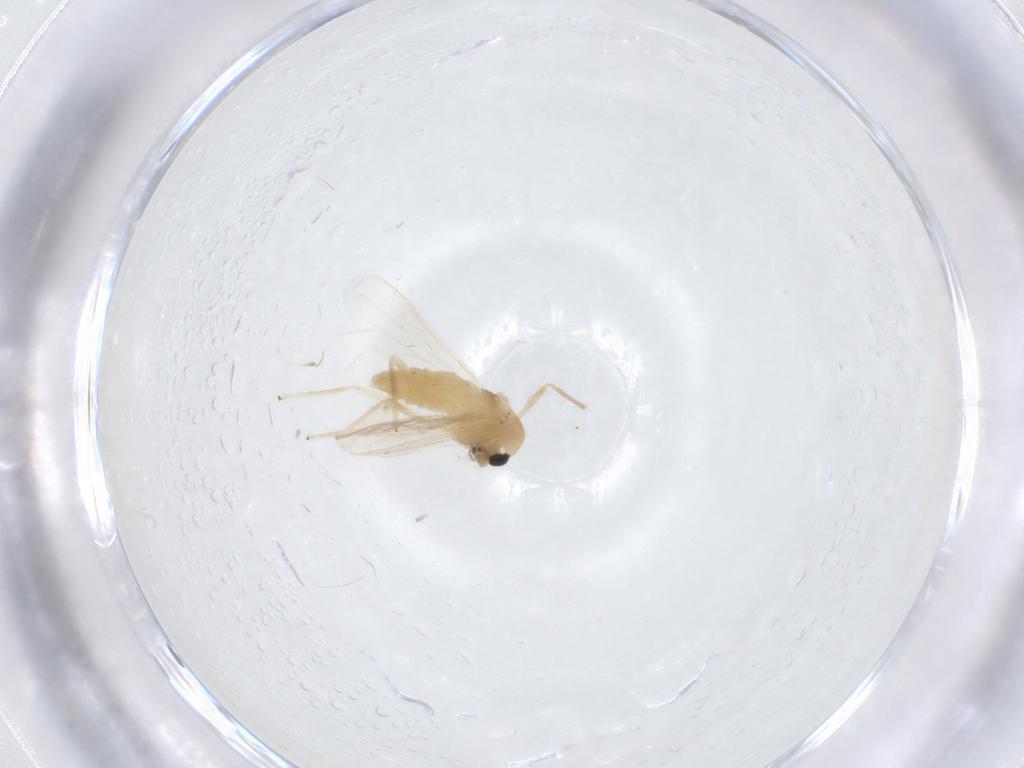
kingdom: Animalia
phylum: Arthropoda
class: Insecta
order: Diptera
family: Chironomidae
